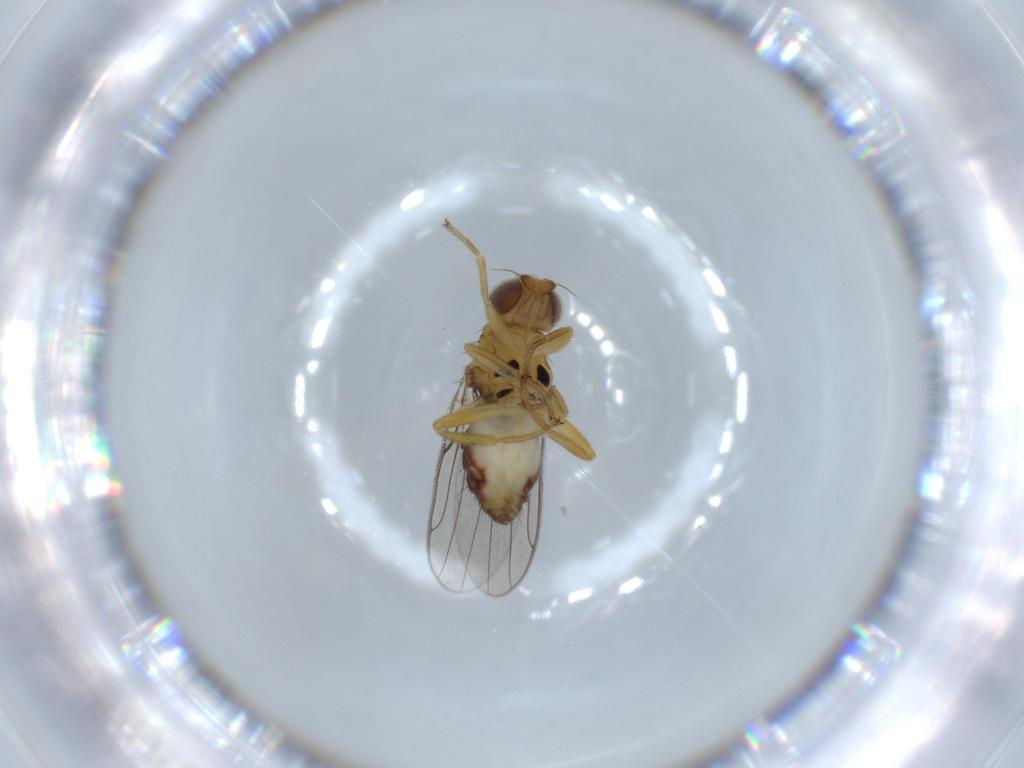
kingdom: Animalia
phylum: Arthropoda
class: Insecta
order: Diptera
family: Chloropidae
